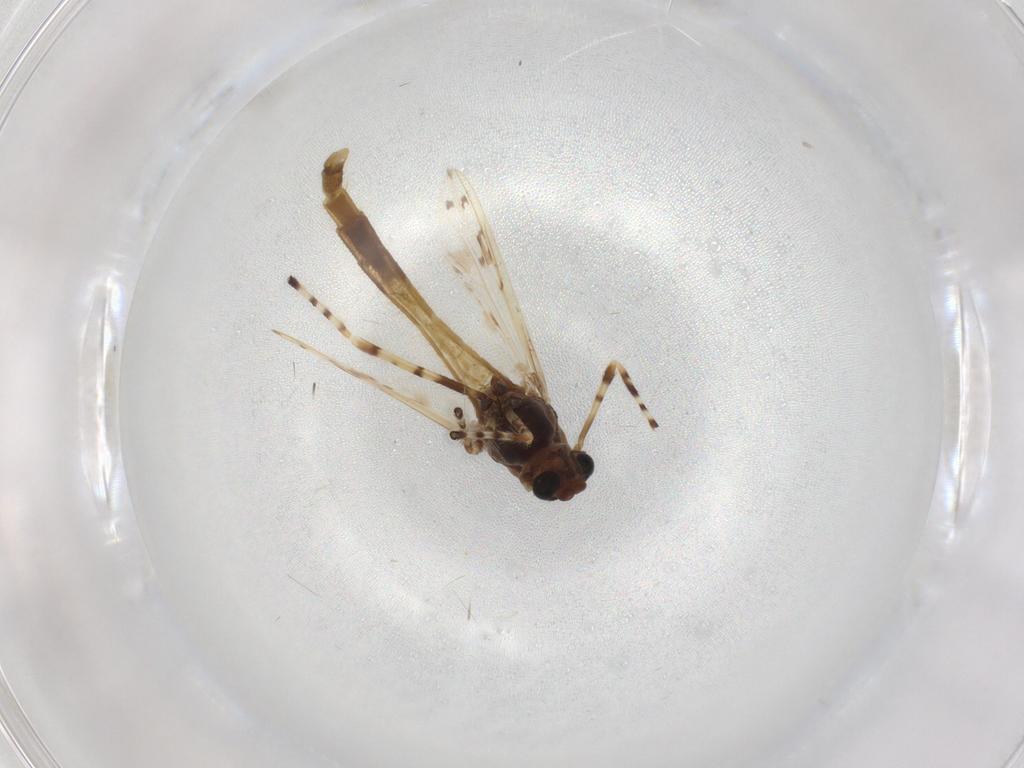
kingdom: Animalia
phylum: Arthropoda
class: Insecta
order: Diptera
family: Chironomidae
